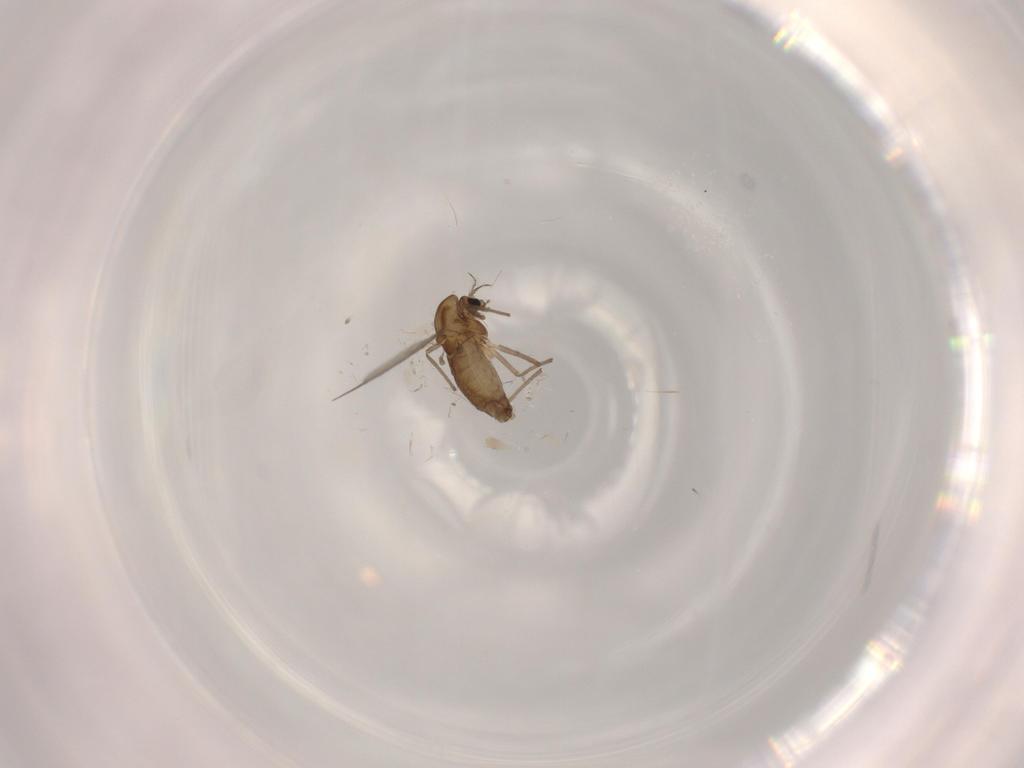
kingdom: Animalia
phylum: Arthropoda
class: Insecta
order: Diptera
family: Chironomidae
